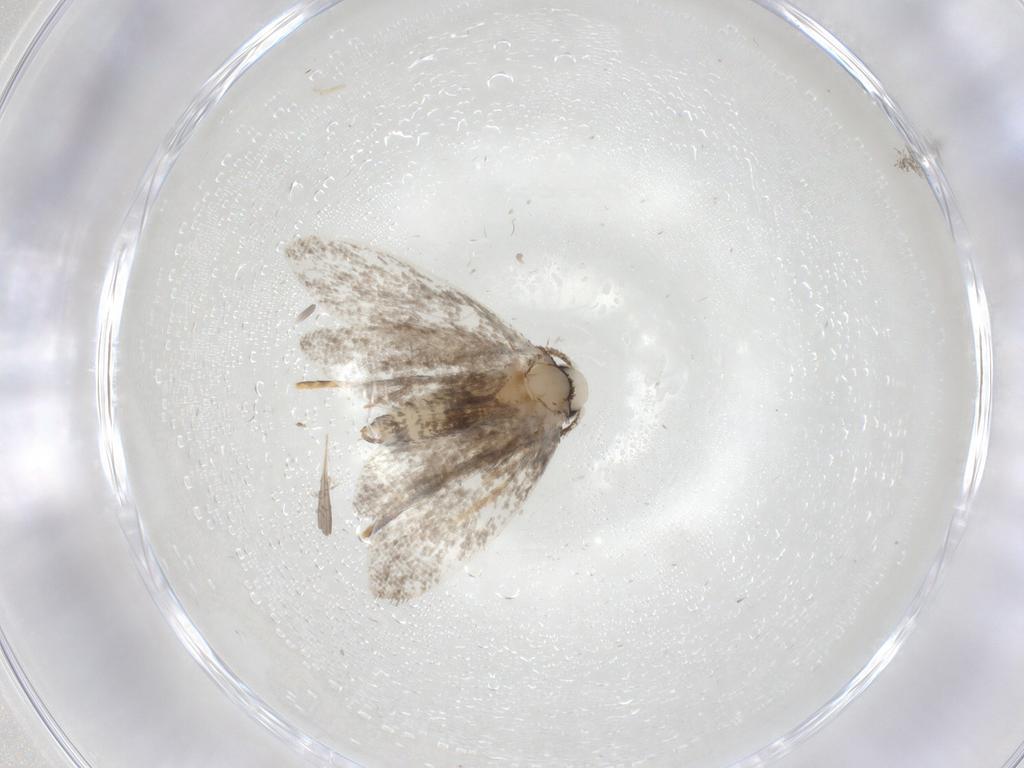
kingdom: Animalia
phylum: Arthropoda
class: Insecta
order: Lepidoptera
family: Psychidae
